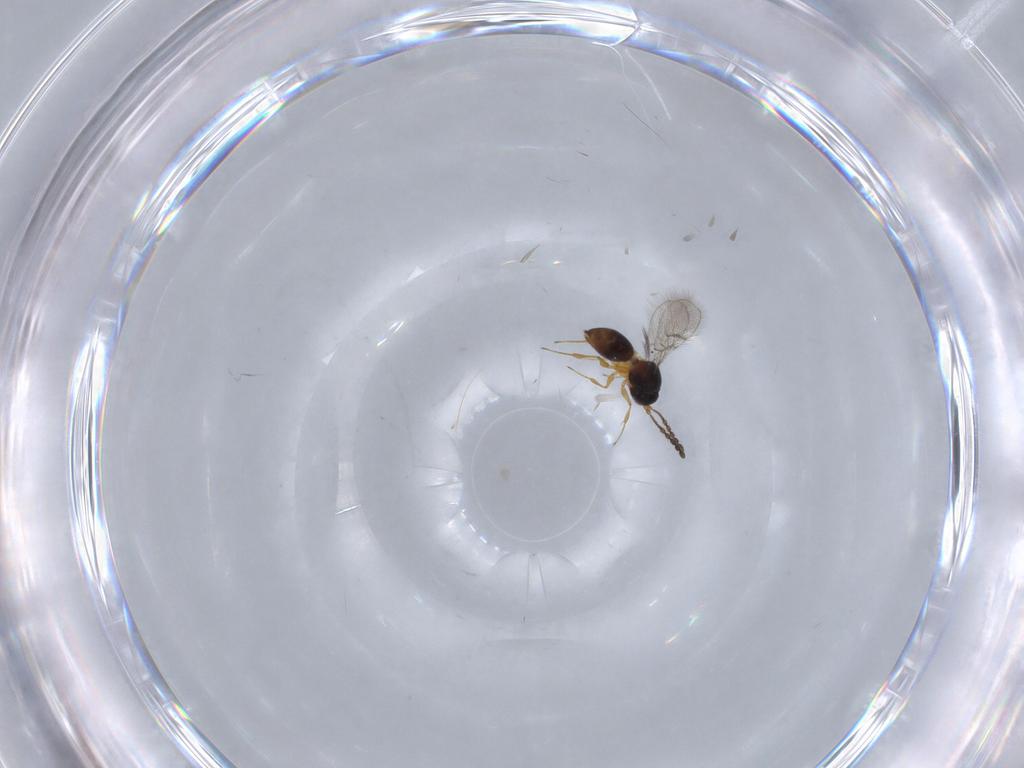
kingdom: Animalia
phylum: Arthropoda
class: Insecta
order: Hymenoptera
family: Figitidae
